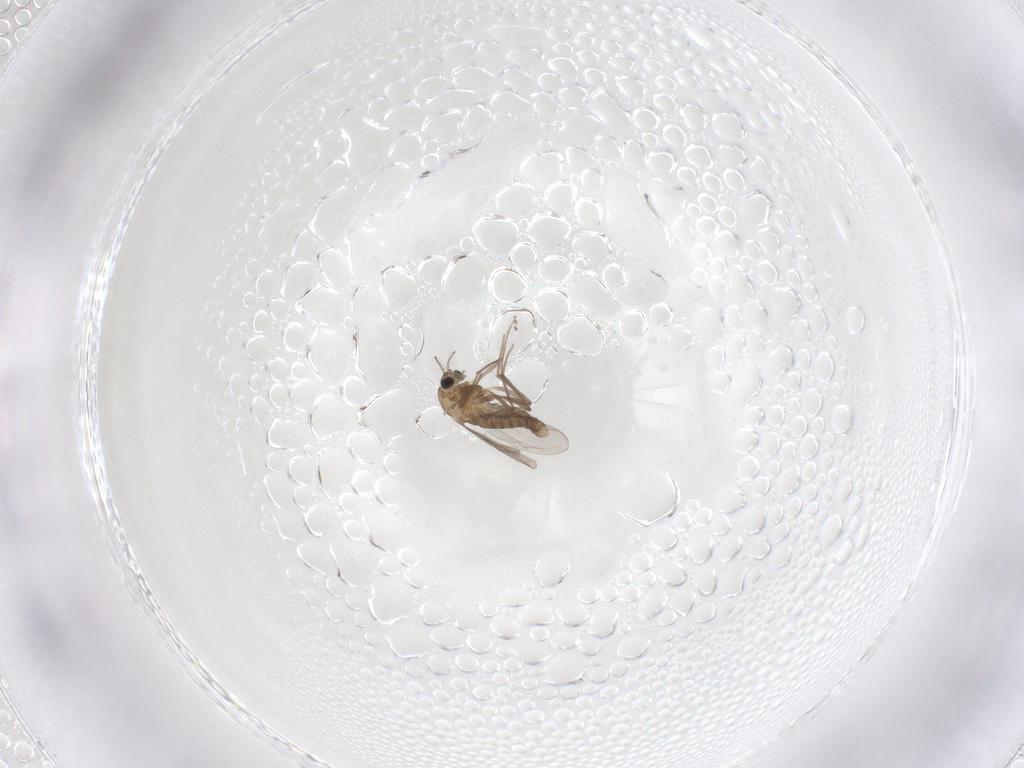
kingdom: Animalia
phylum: Arthropoda
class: Insecta
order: Diptera
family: Chironomidae
